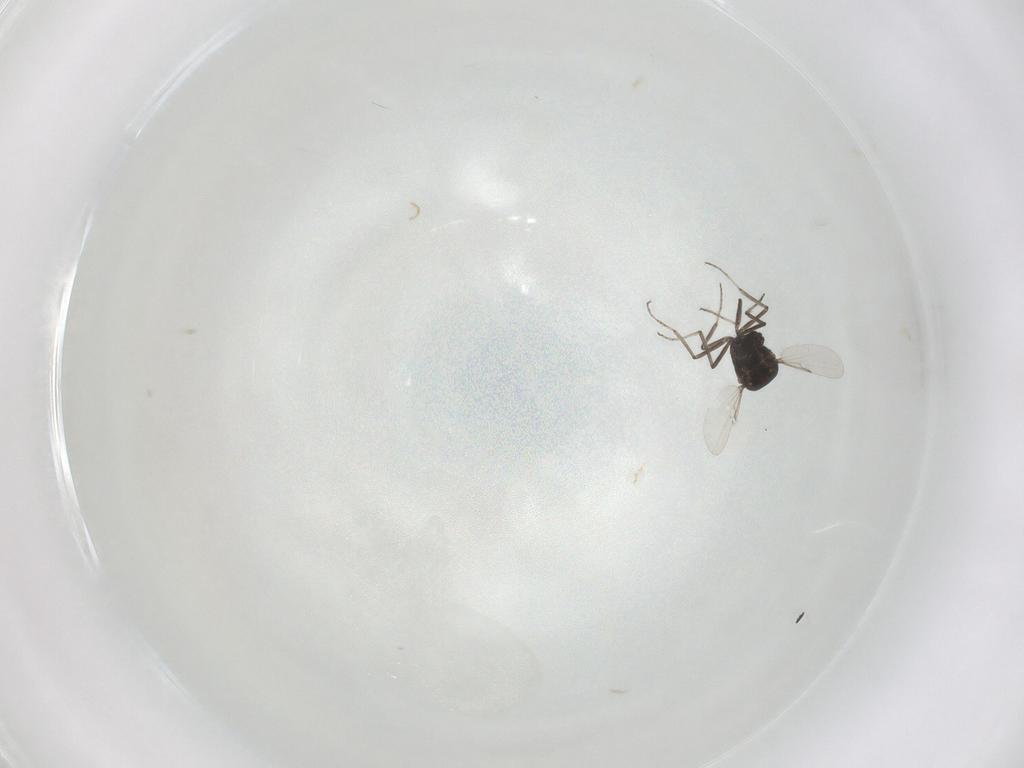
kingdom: Animalia
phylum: Arthropoda
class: Insecta
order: Diptera
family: Ceratopogonidae
